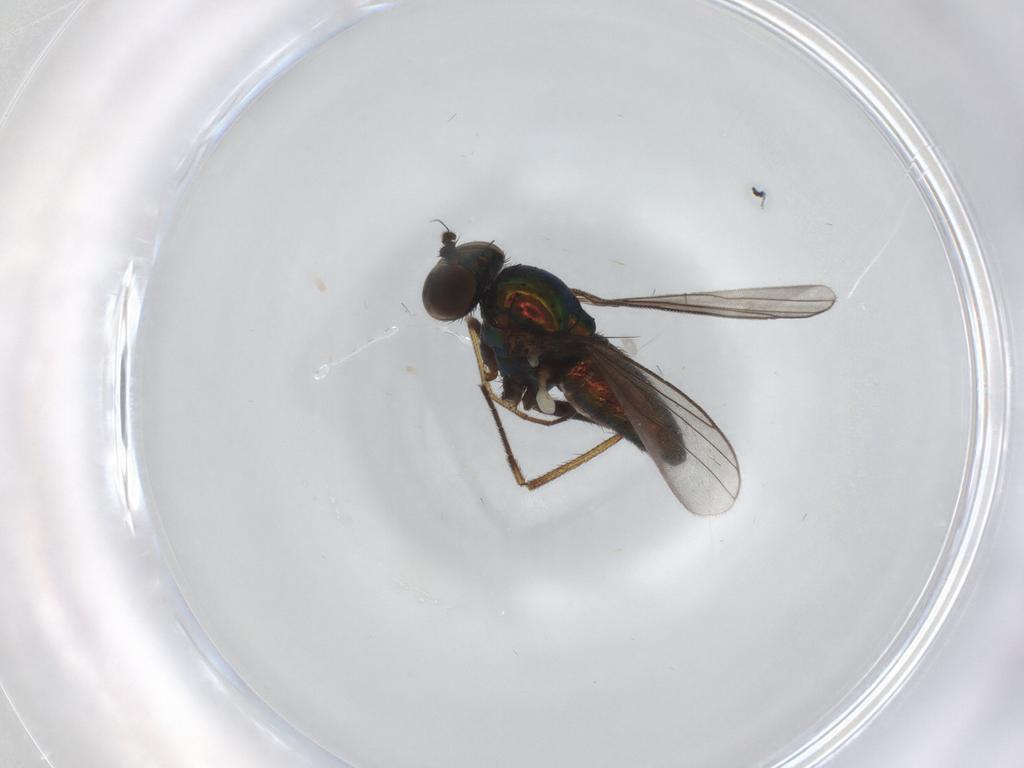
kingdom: Animalia
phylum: Arthropoda
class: Insecta
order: Diptera
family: Dolichopodidae
